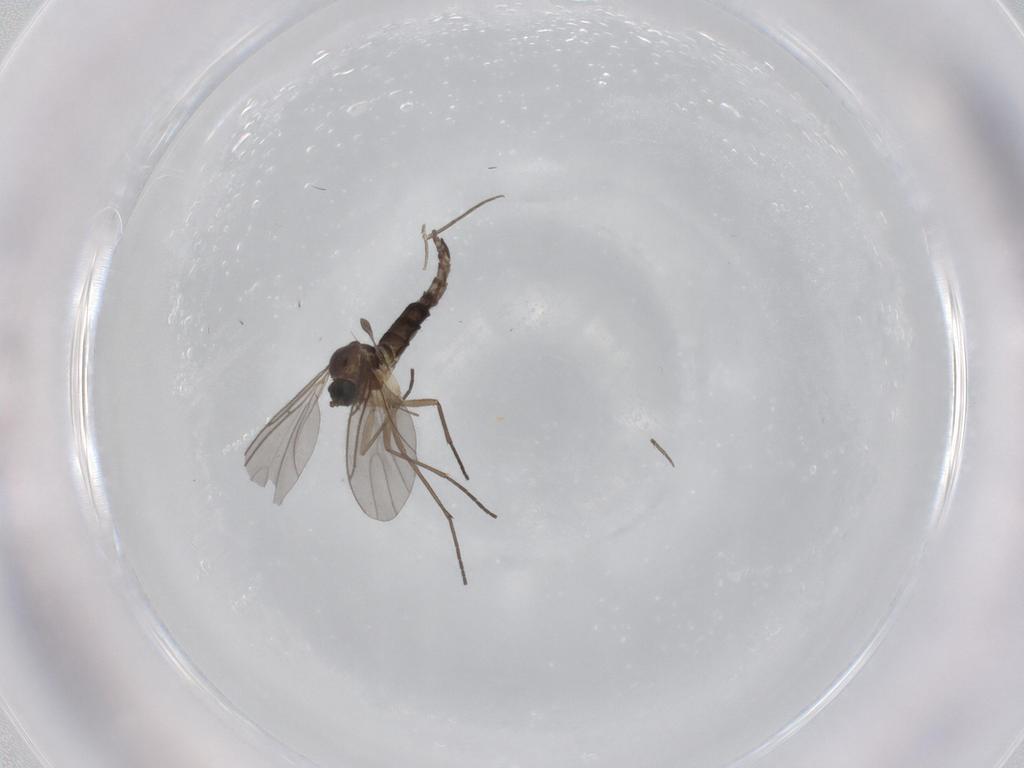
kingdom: Animalia
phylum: Arthropoda
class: Insecta
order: Diptera
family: Sciaridae
